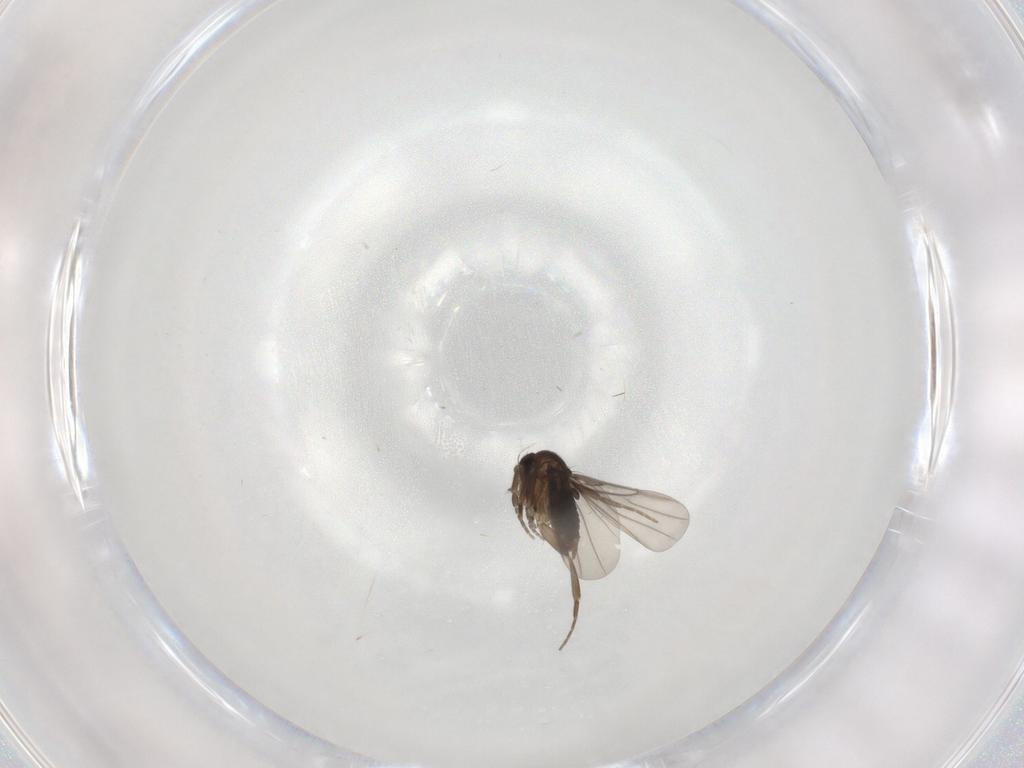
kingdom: Animalia
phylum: Arthropoda
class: Insecta
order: Diptera
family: Phoridae
